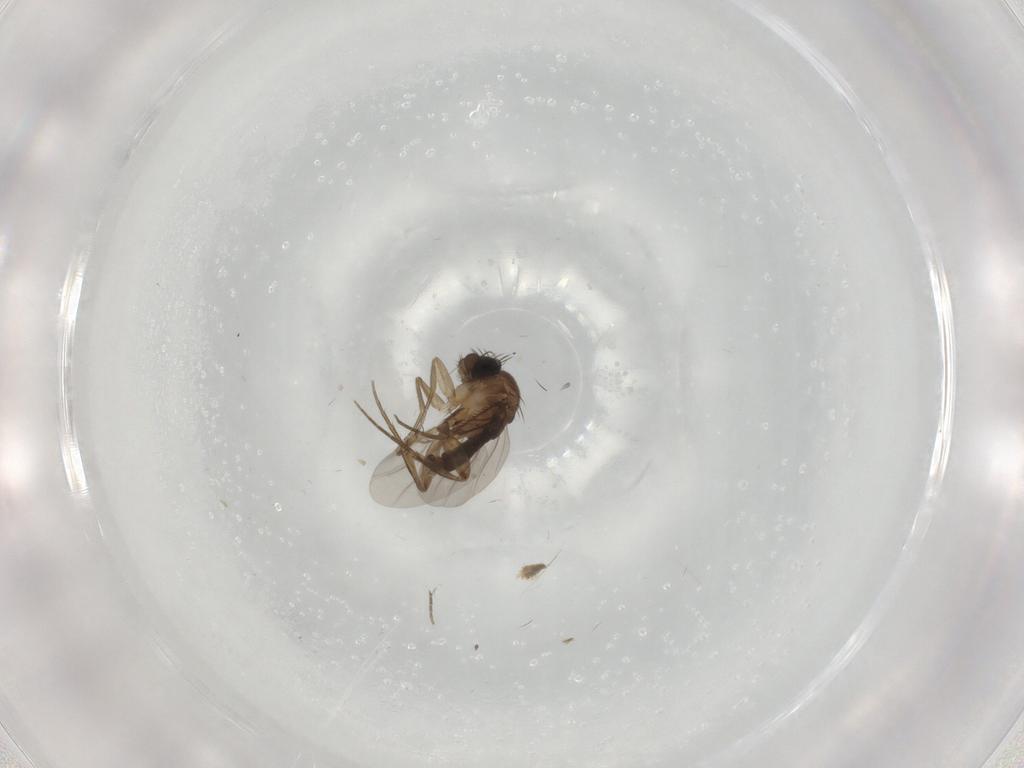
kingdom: Animalia
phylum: Arthropoda
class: Insecta
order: Diptera
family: Phoridae
